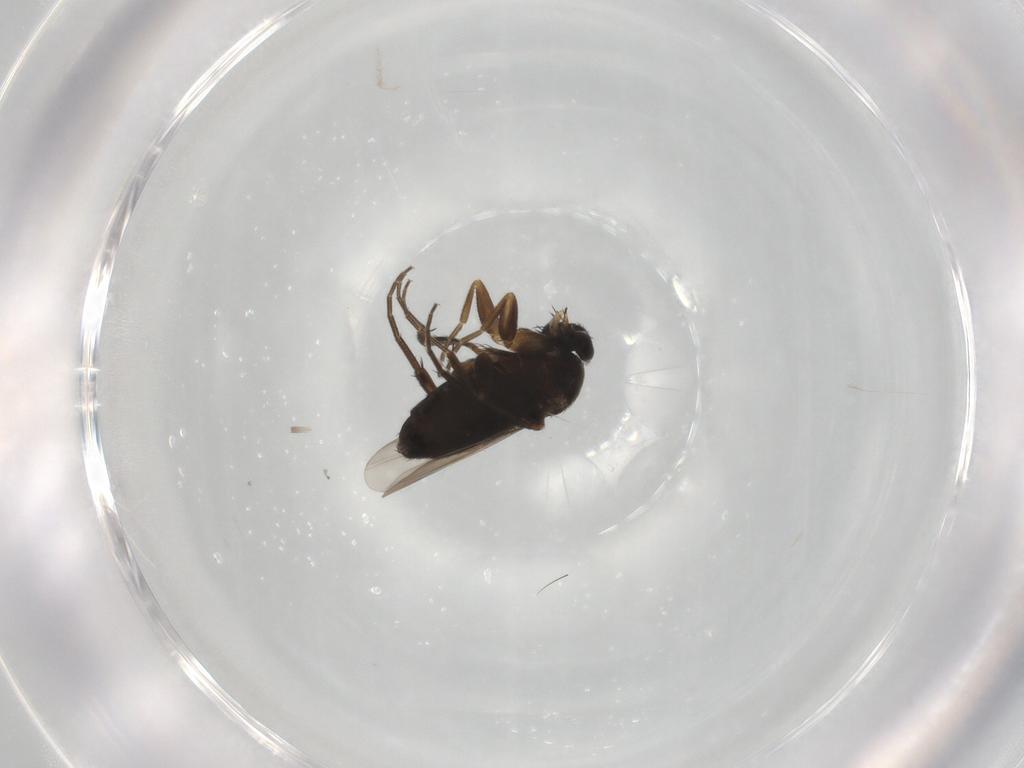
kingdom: Animalia
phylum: Arthropoda
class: Insecta
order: Diptera
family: Phoridae
